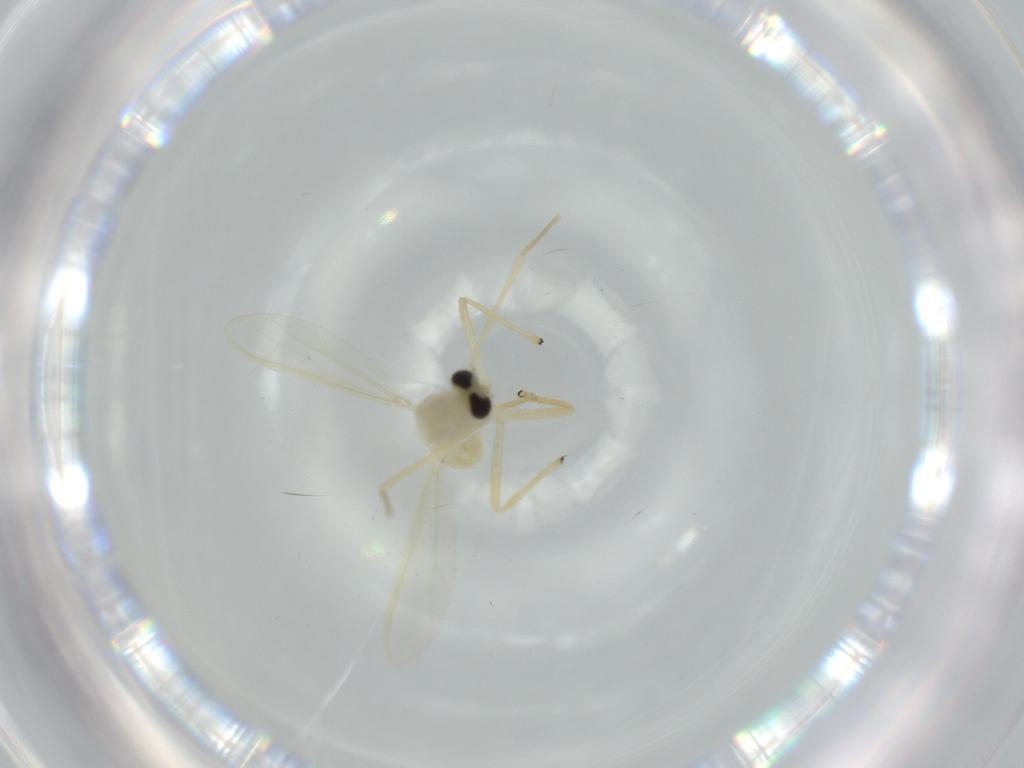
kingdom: Animalia
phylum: Arthropoda
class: Insecta
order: Diptera
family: Chironomidae
